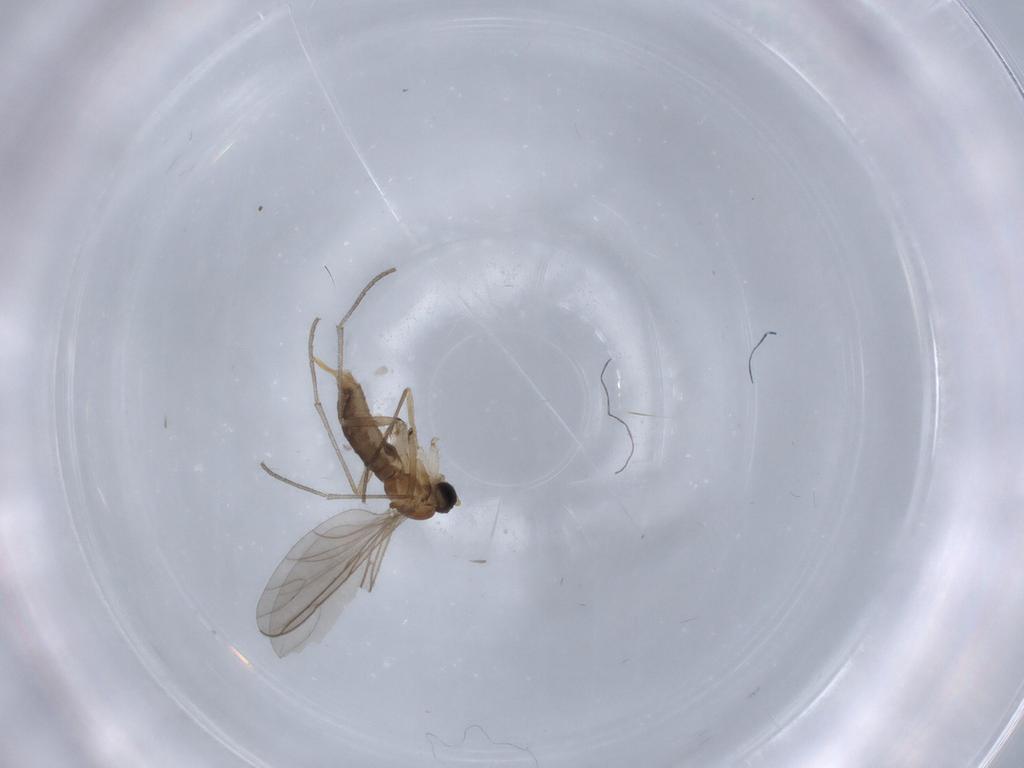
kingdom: Animalia
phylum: Arthropoda
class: Insecta
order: Diptera
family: Sciaridae
